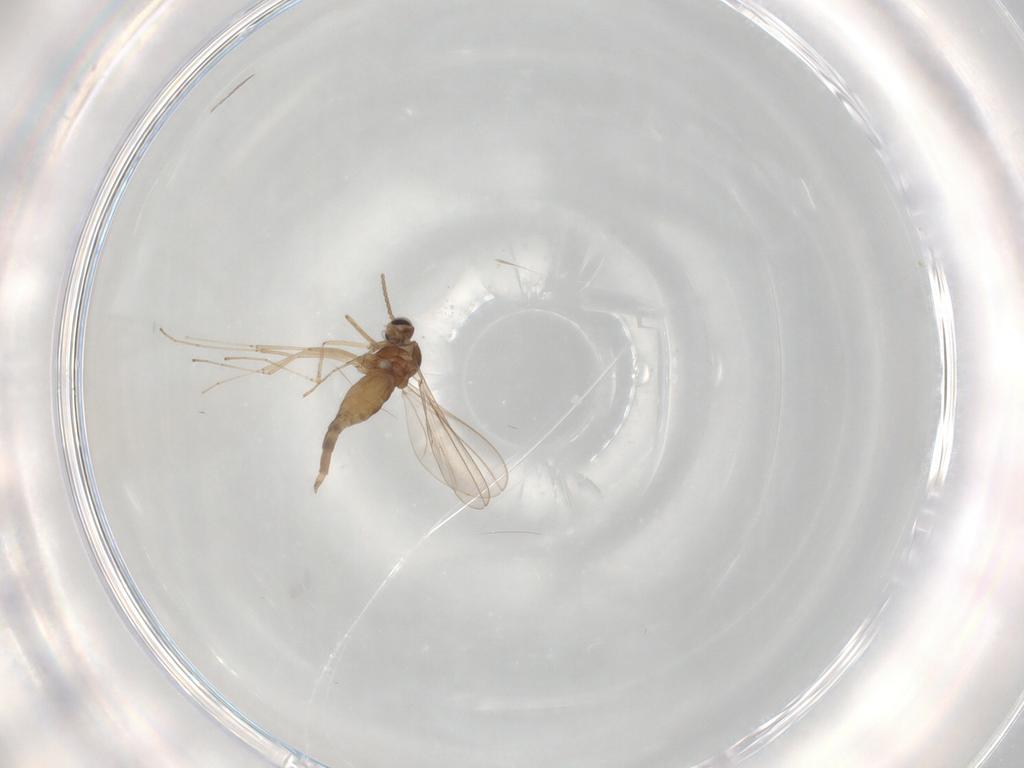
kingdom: Animalia
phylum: Arthropoda
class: Insecta
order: Diptera
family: Cecidomyiidae
